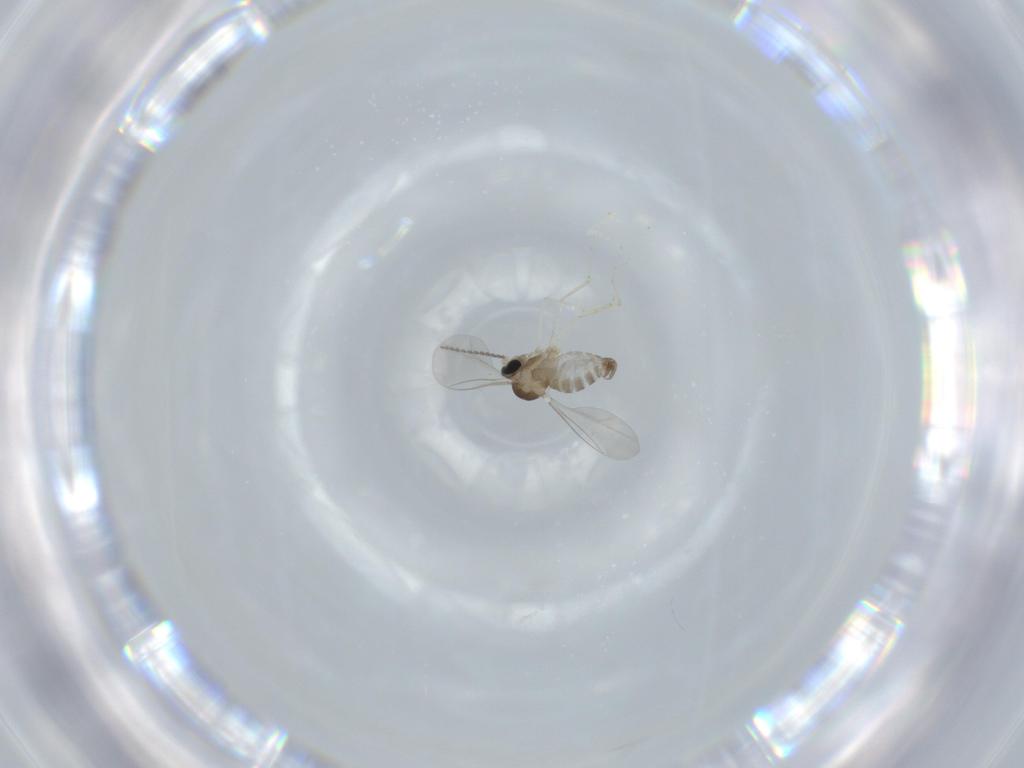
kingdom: Animalia
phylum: Arthropoda
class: Insecta
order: Diptera
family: Cecidomyiidae
